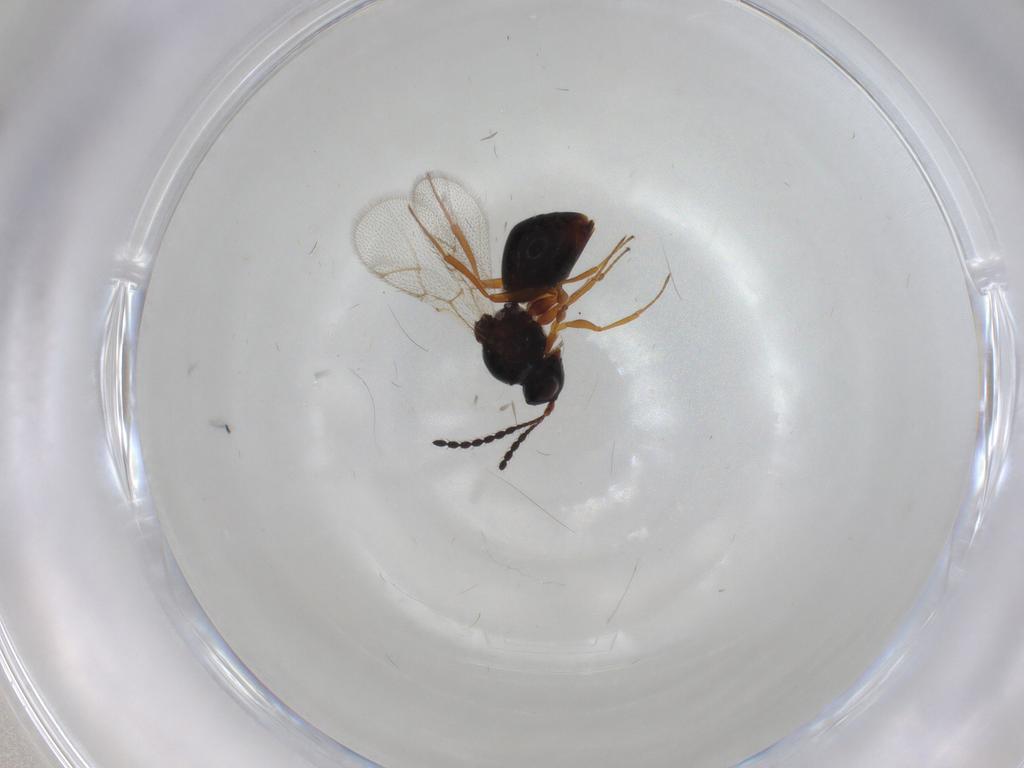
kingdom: Animalia
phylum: Arthropoda
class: Insecta
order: Hymenoptera
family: Figitidae
